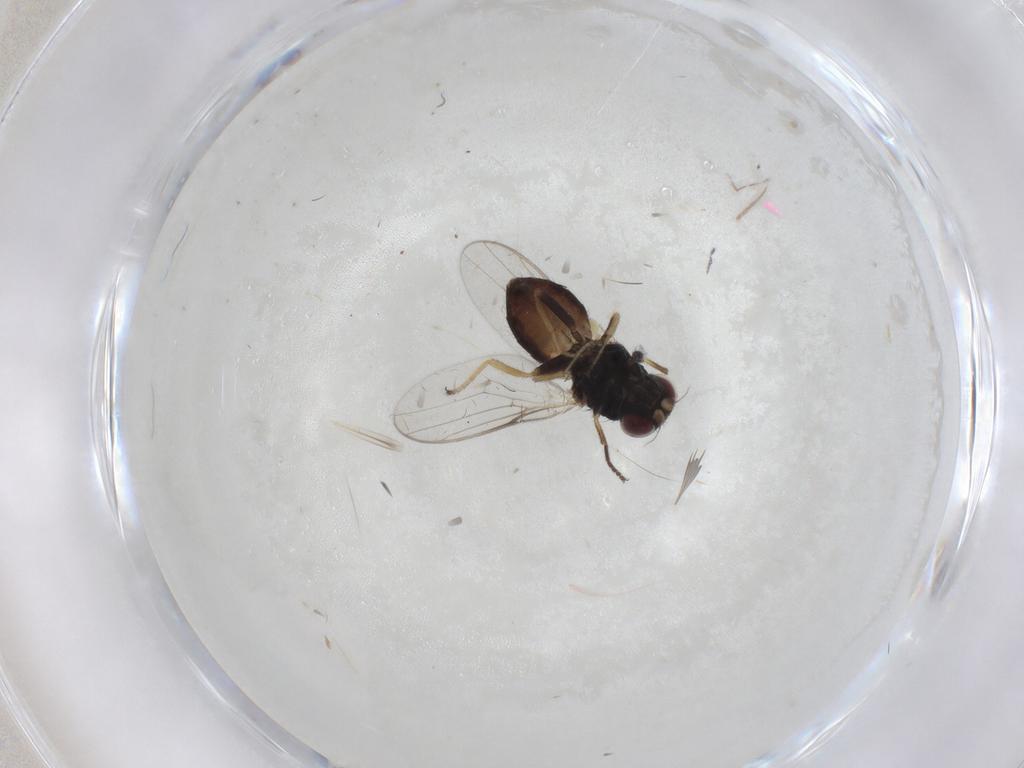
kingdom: Animalia
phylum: Arthropoda
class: Insecta
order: Diptera
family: Chloropidae
